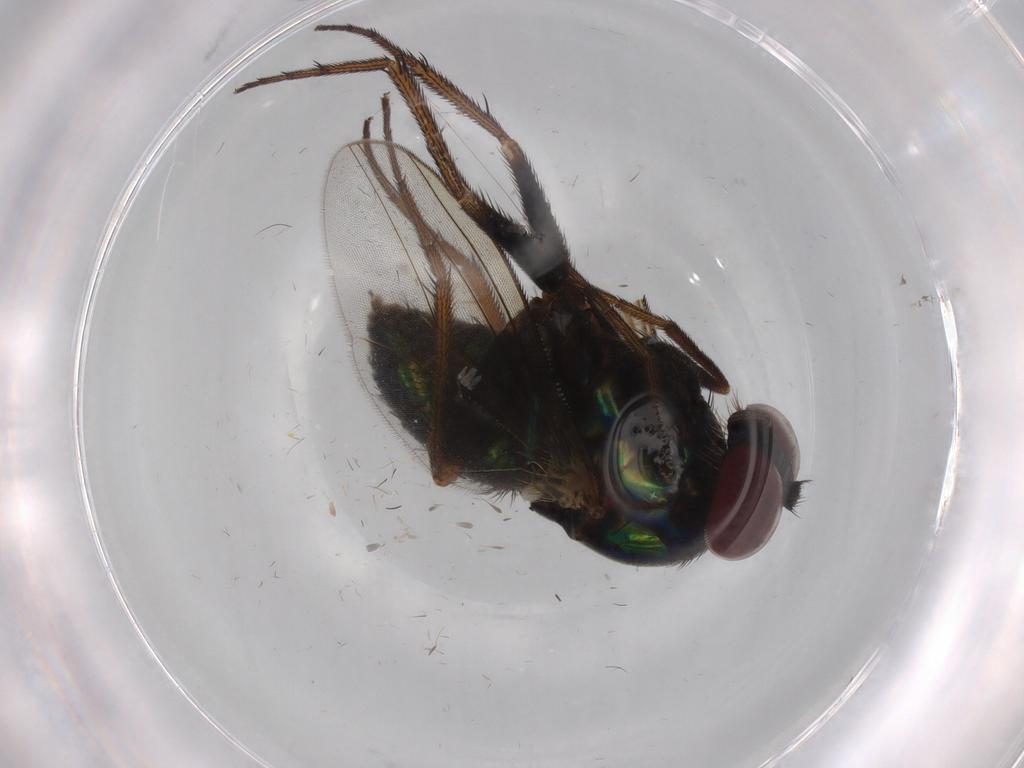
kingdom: Animalia
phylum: Arthropoda
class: Insecta
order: Diptera
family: Dolichopodidae
